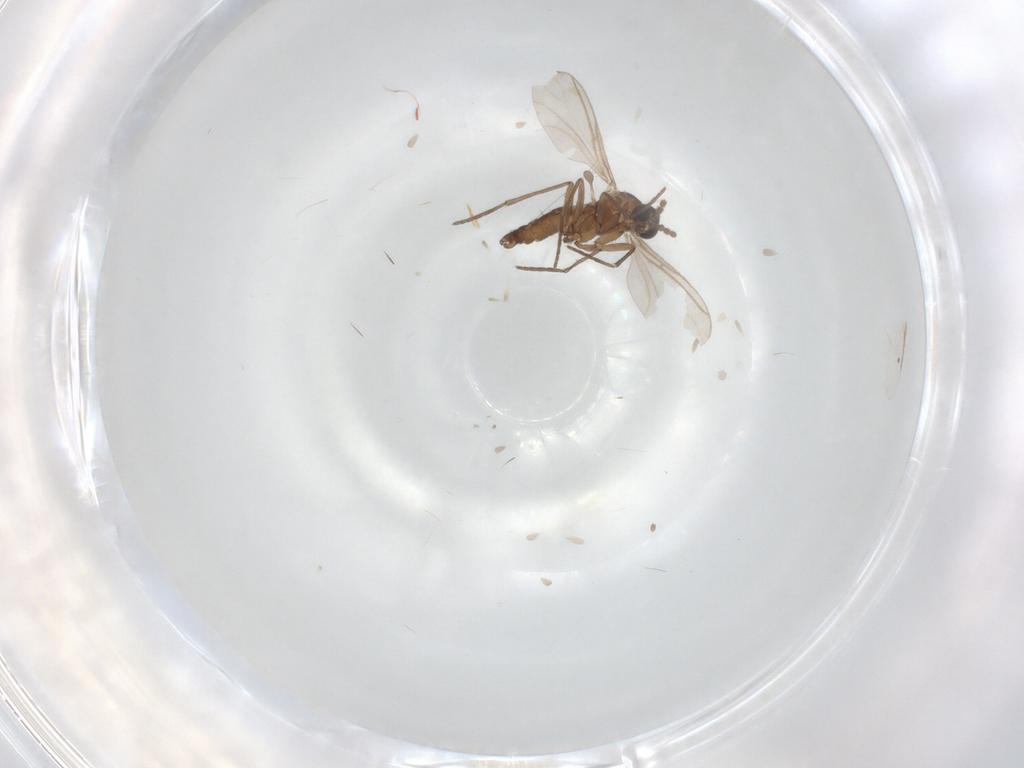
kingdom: Animalia
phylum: Arthropoda
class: Insecta
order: Diptera
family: Sciaridae
